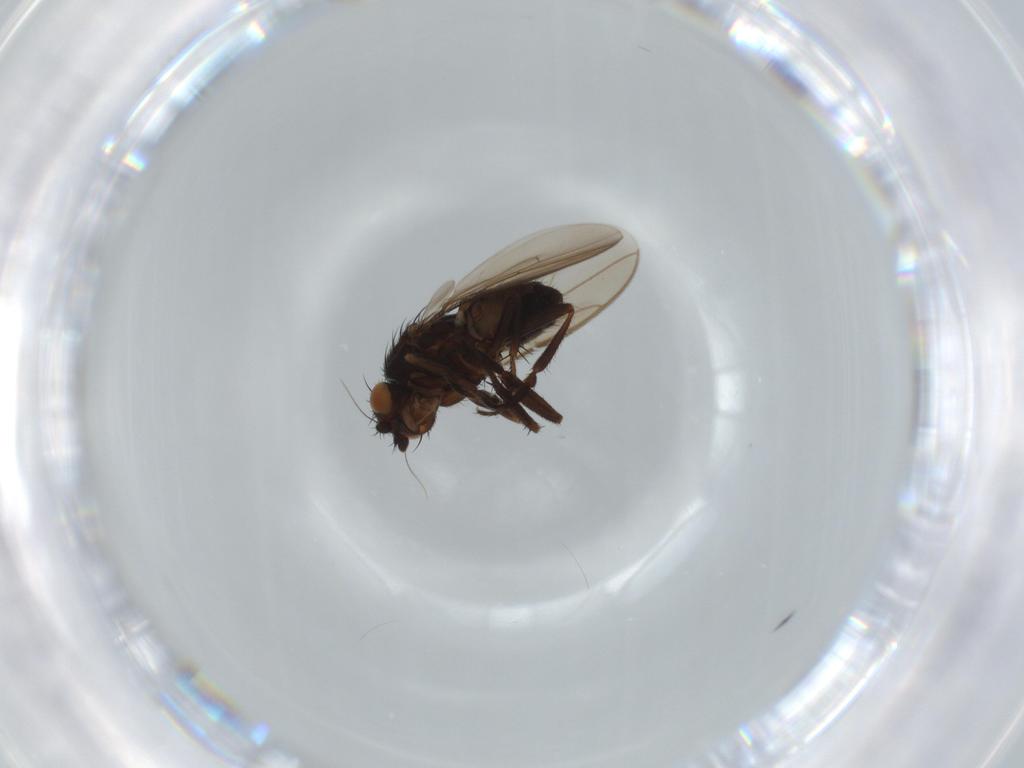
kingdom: Animalia
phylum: Arthropoda
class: Insecta
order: Diptera
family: Sphaeroceridae
